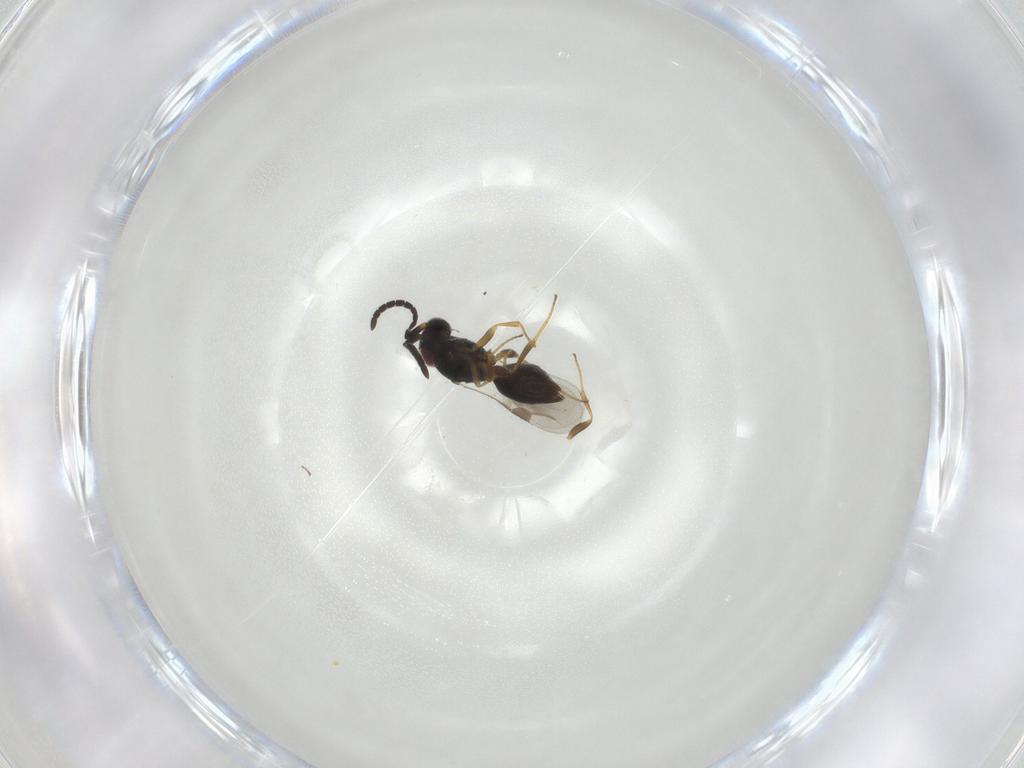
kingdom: Animalia
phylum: Arthropoda
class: Insecta
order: Hymenoptera
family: Megaspilidae
